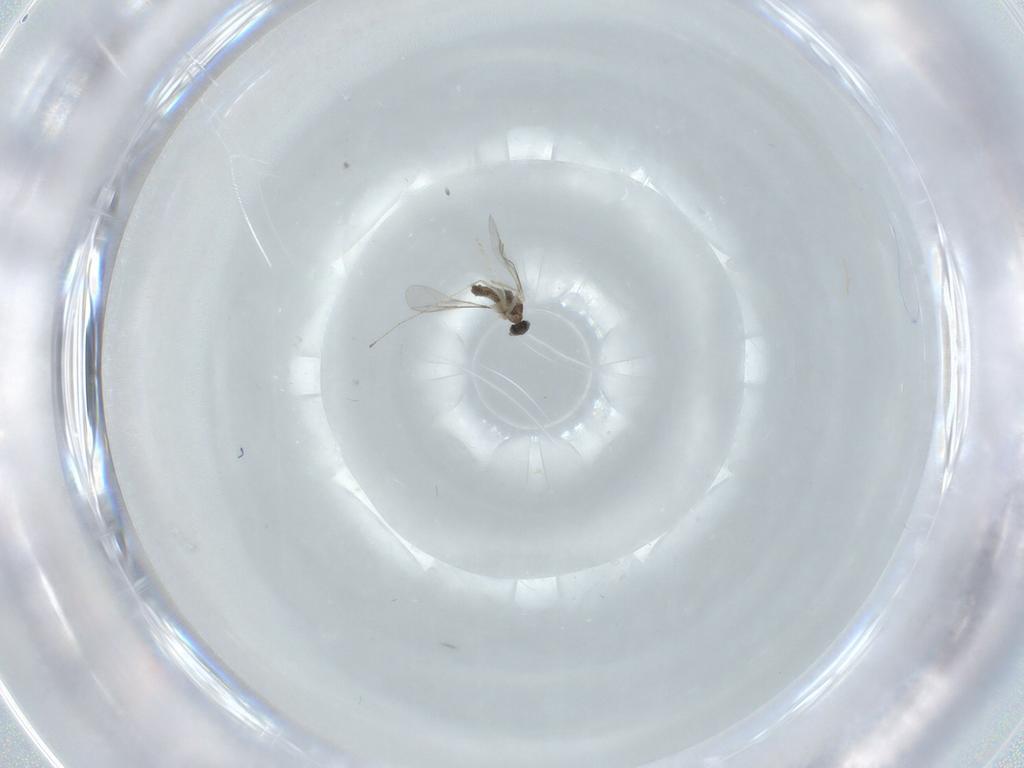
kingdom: Animalia
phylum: Arthropoda
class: Insecta
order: Diptera
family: Cecidomyiidae
